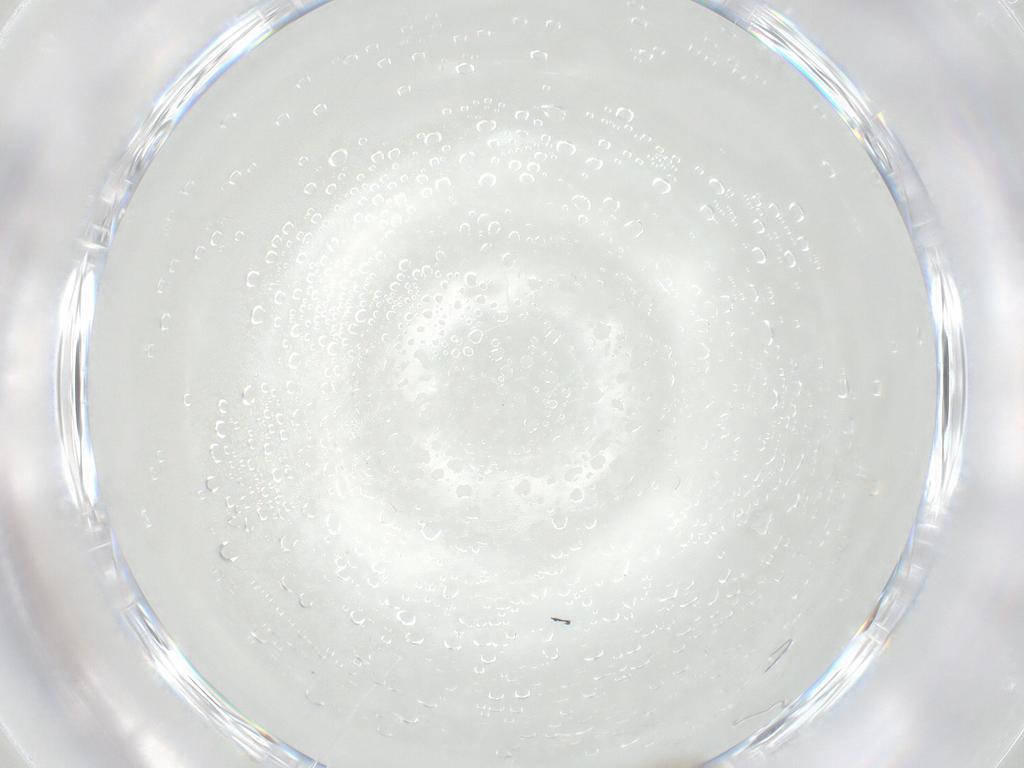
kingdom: Animalia
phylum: Arthropoda
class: Insecta
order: Diptera
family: Cecidomyiidae
